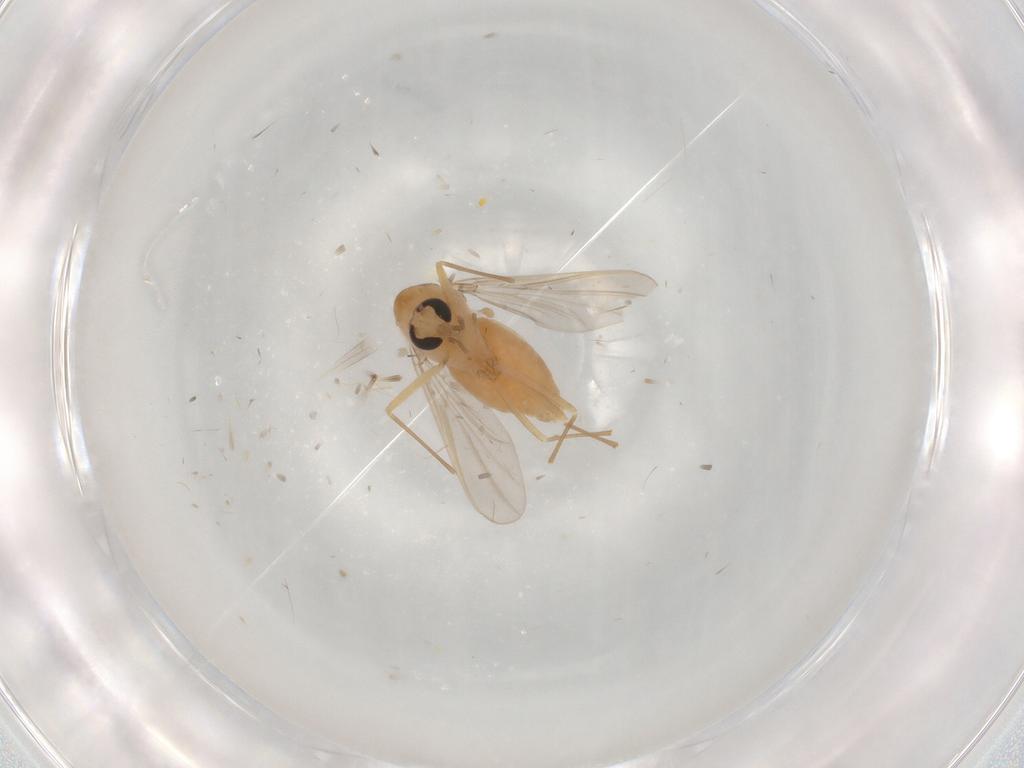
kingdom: Animalia
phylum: Arthropoda
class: Insecta
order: Diptera
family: Chironomidae
